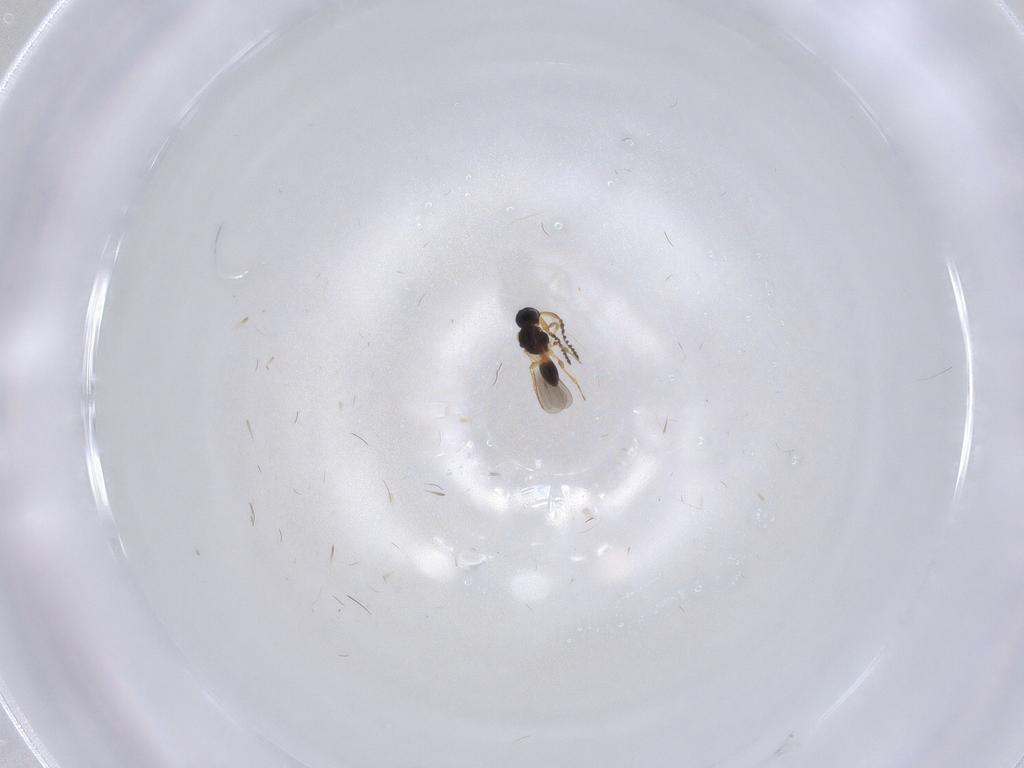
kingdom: Animalia
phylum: Arthropoda
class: Insecta
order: Hymenoptera
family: Platygastridae
